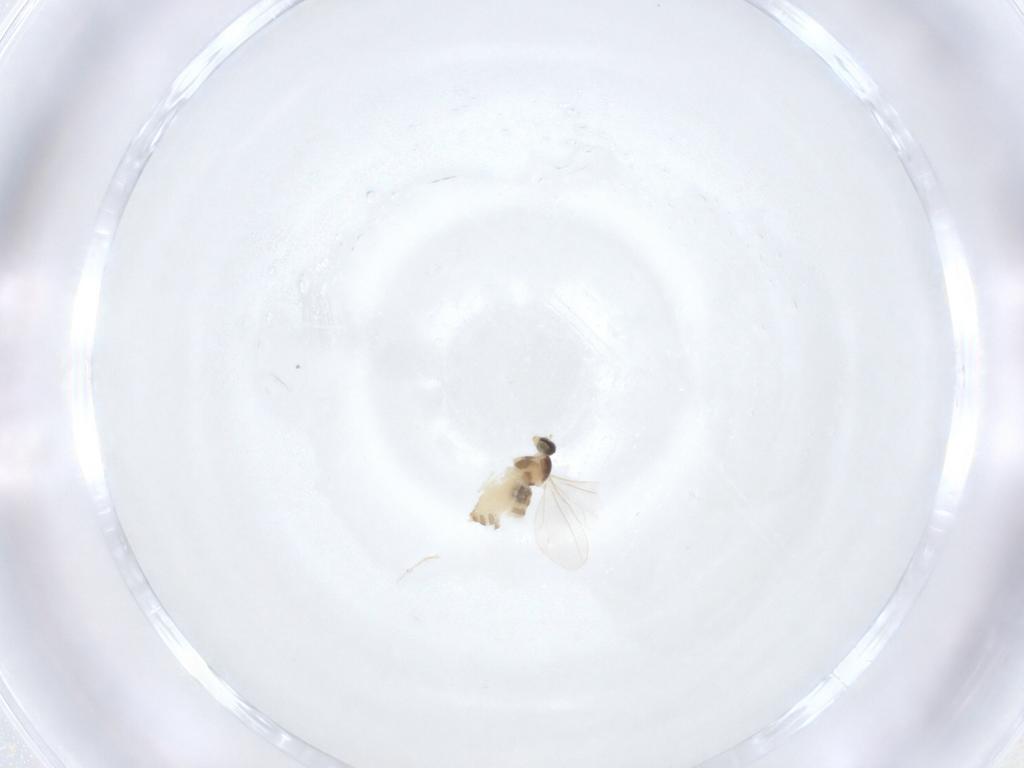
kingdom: Animalia
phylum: Arthropoda
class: Insecta
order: Diptera
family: Cecidomyiidae
